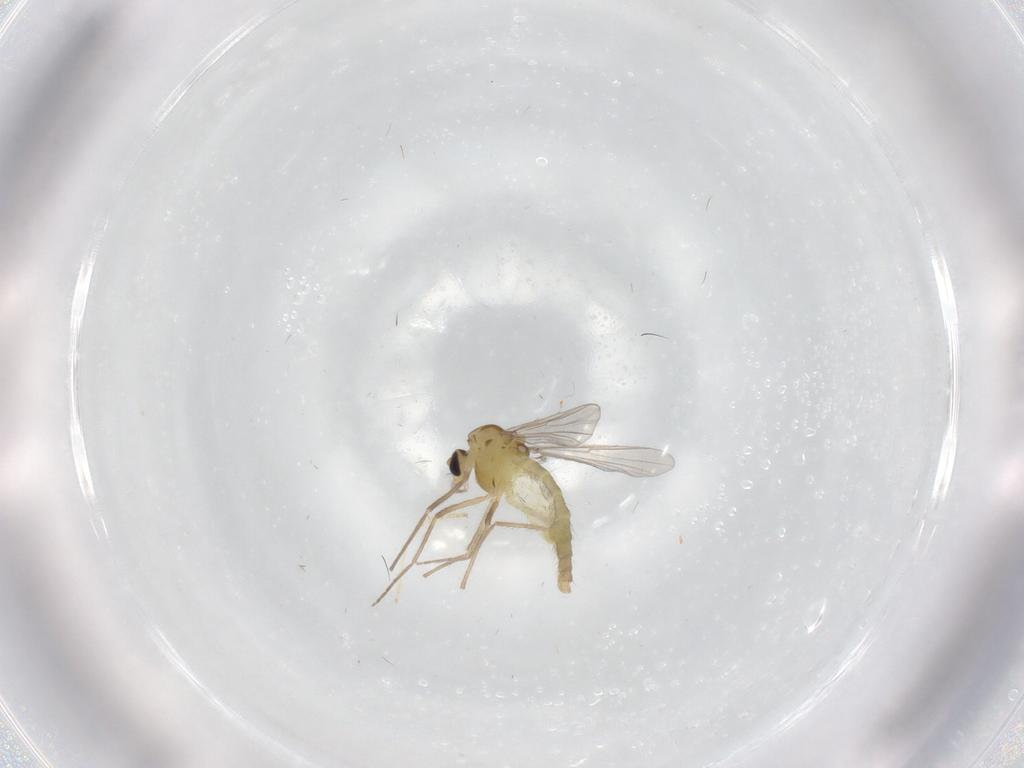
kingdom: Animalia
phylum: Arthropoda
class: Insecta
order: Diptera
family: Chironomidae
